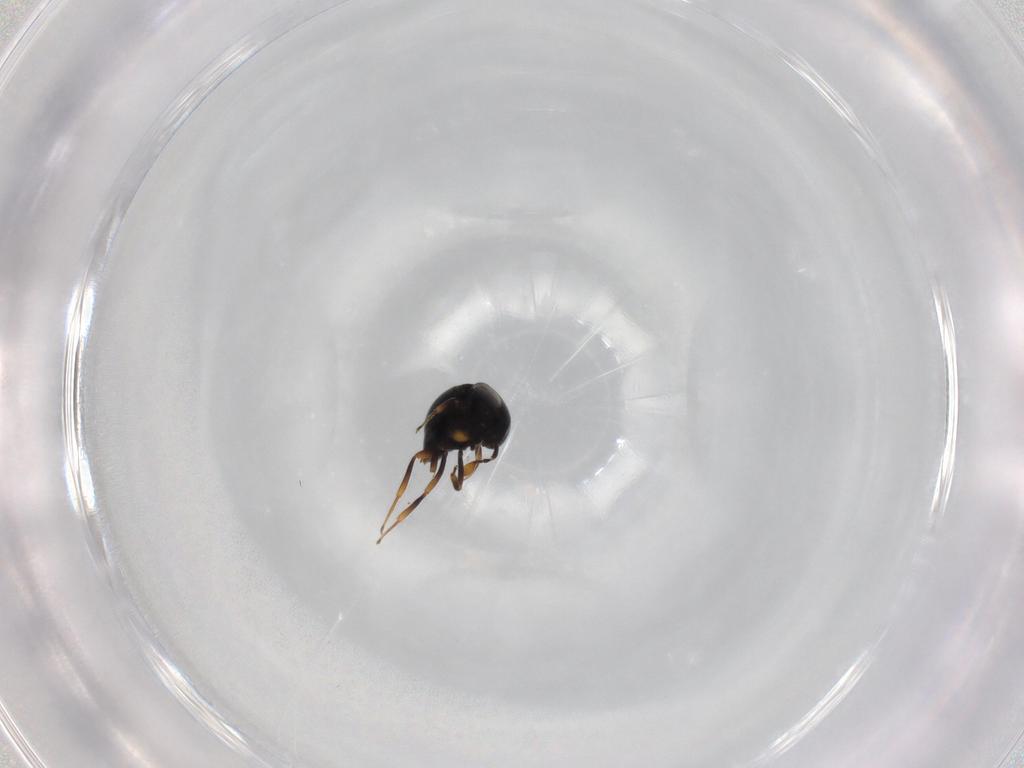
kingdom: Animalia
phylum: Arthropoda
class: Insecta
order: Hymenoptera
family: Scelionidae
